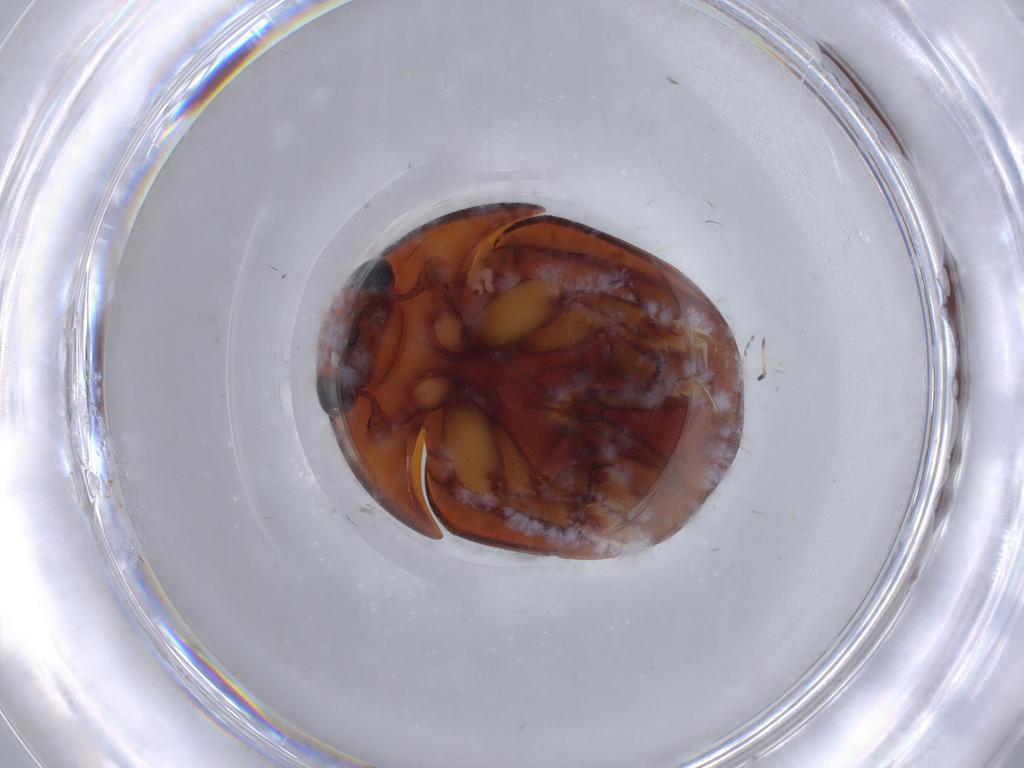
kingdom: Animalia
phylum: Arthropoda
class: Insecta
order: Coleoptera
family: Nitidulidae
